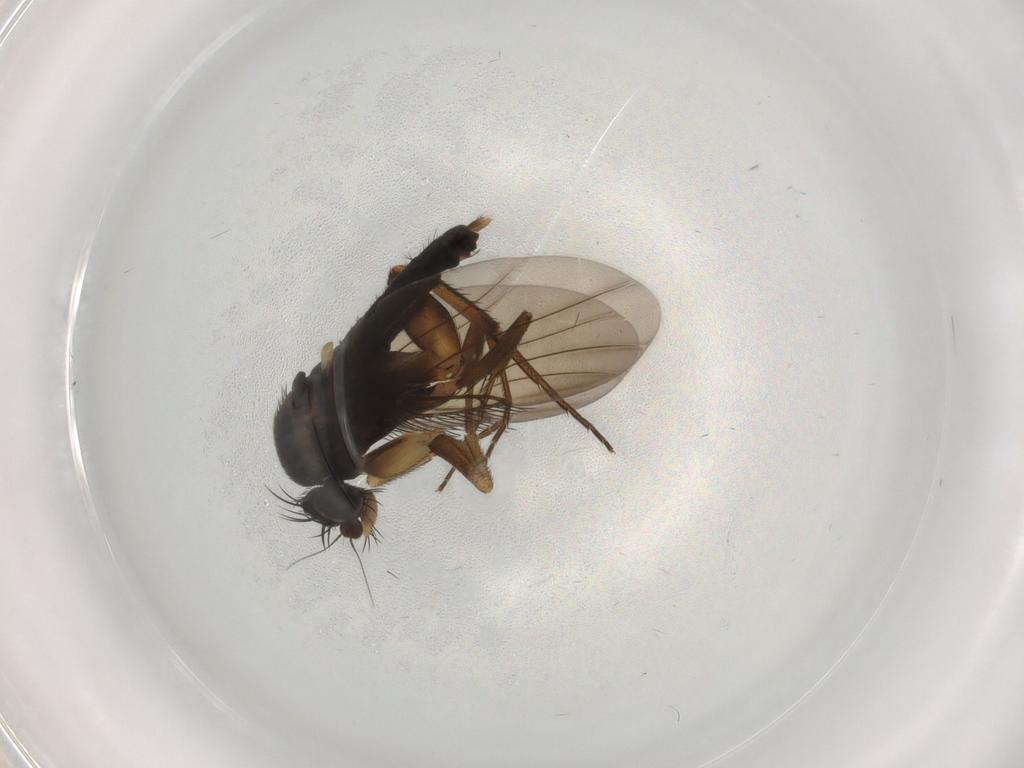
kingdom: Animalia
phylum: Arthropoda
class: Insecta
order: Diptera
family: Phoridae
